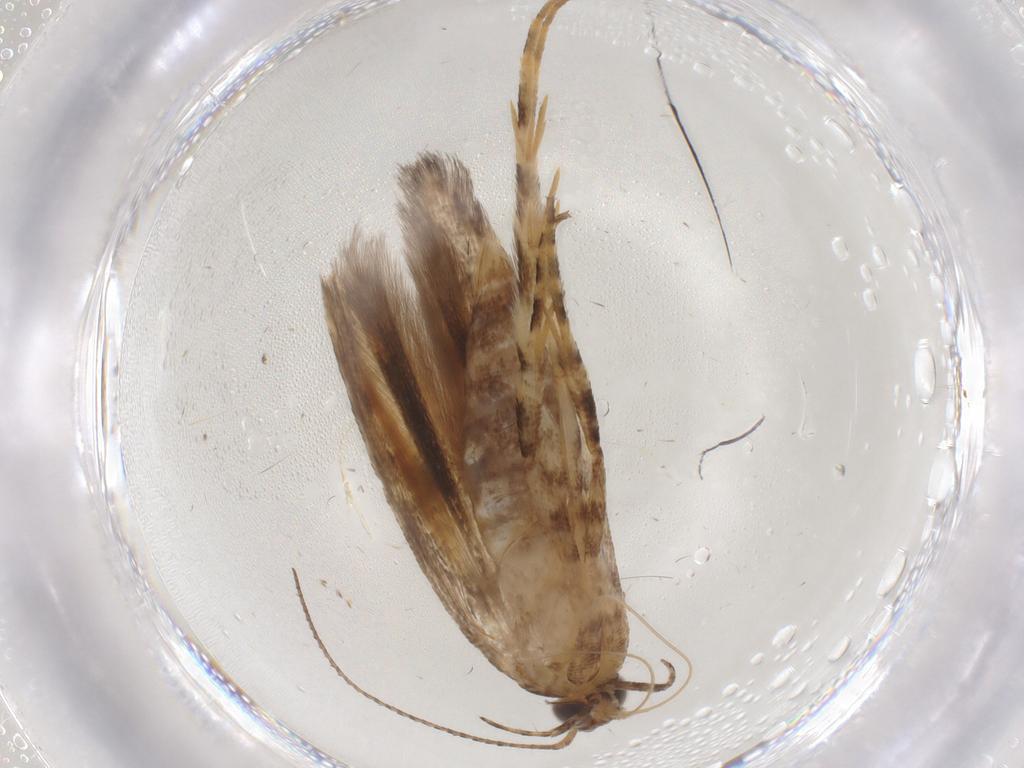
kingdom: Animalia
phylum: Arthropoda
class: Insecta
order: Lepidoptera
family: Gelechiidae
